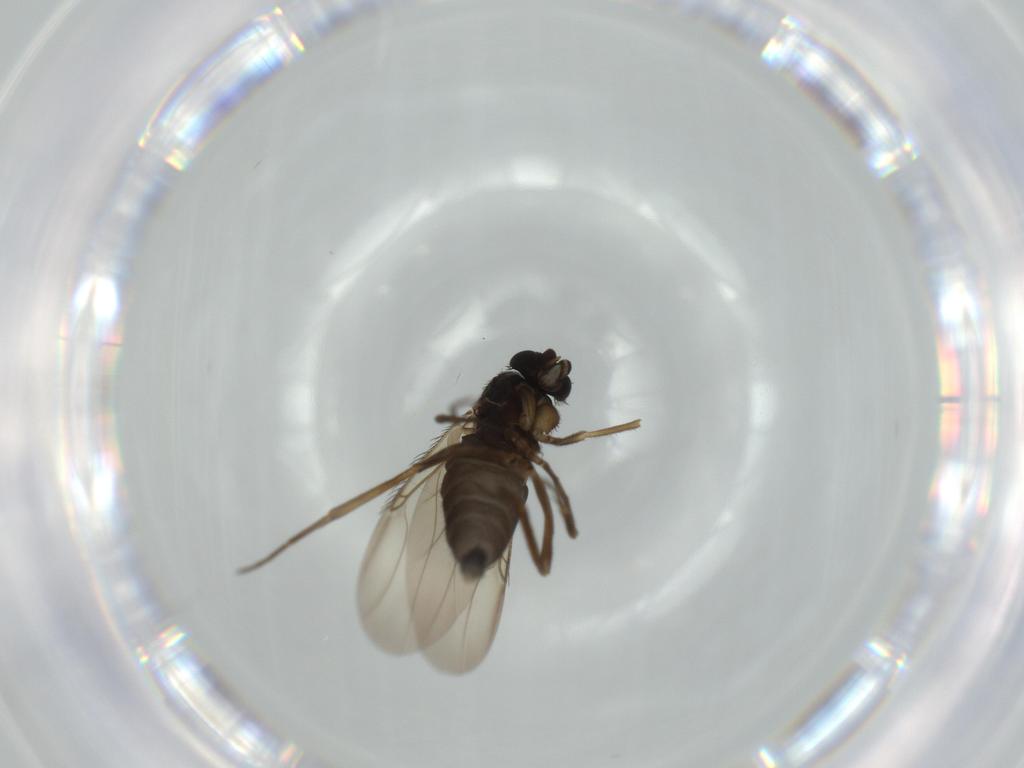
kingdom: Animalia
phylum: Arthropoda
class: Insecta
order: Diptera
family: Phoridae
